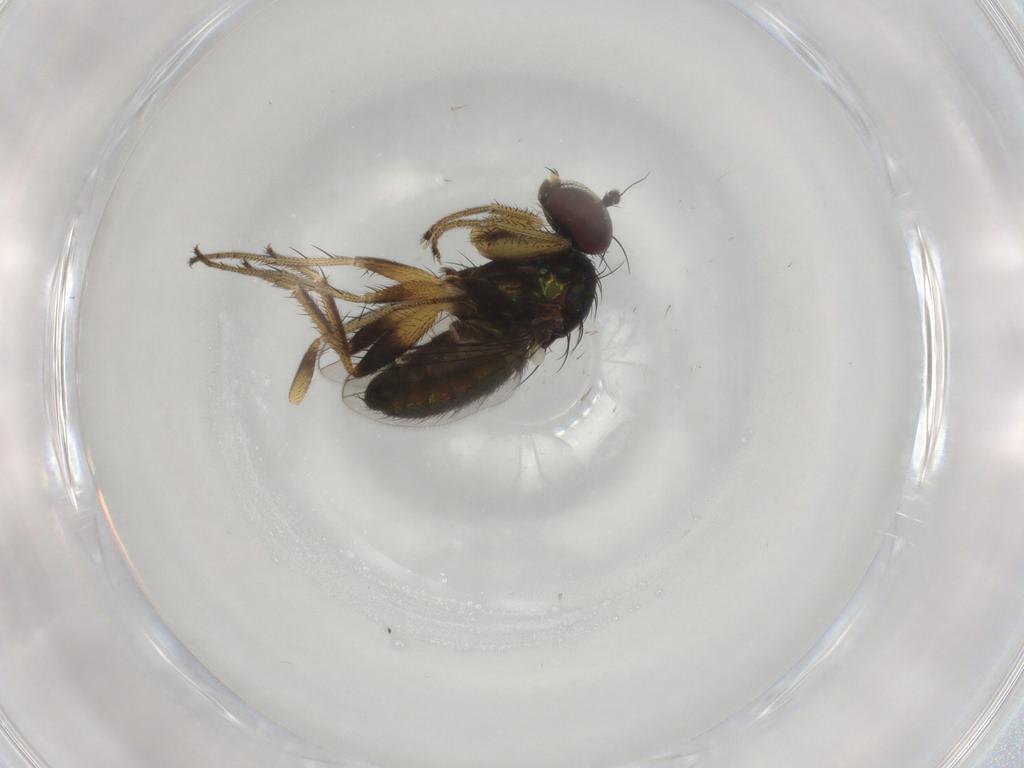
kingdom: Animalia
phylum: Arthropoda
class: Insecta
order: Diptera
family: Dolichopodidae
